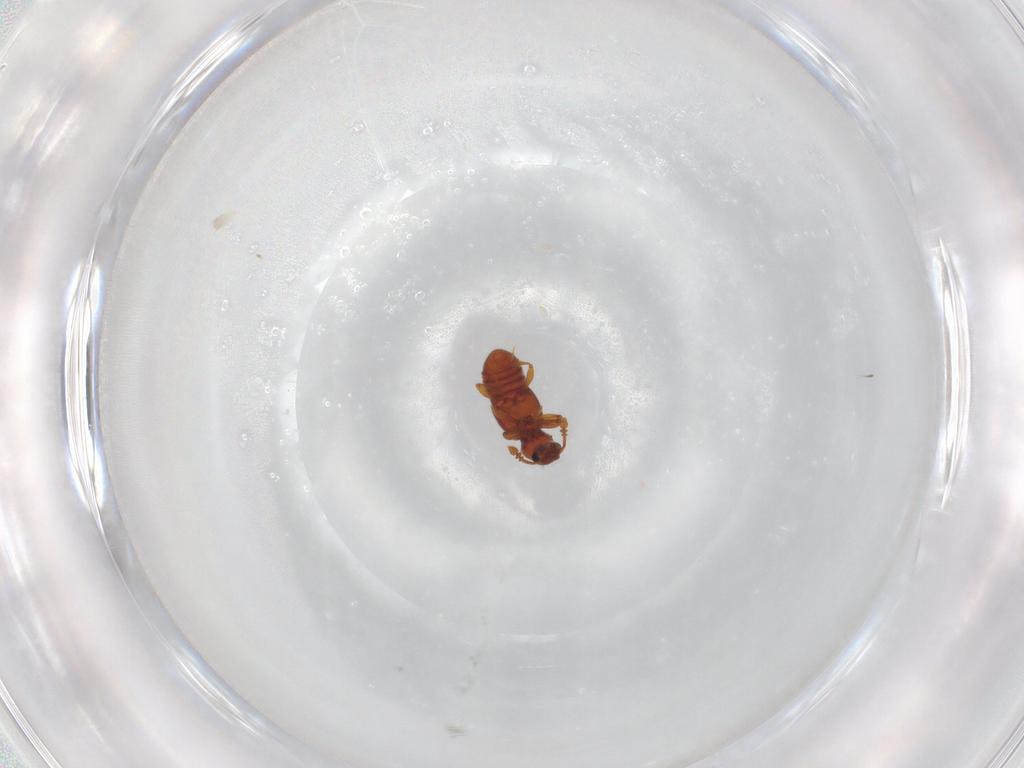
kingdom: Animalia
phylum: Arthropoda
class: Insecta
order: Coleoptera
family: Staphylinidae
